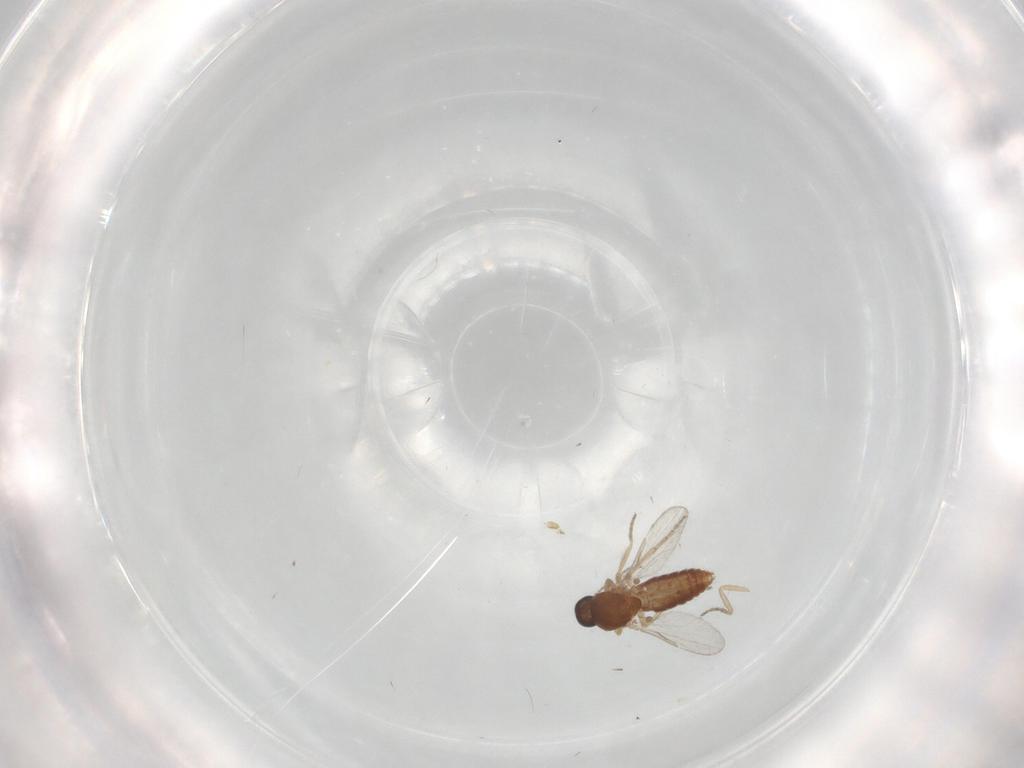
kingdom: Animalia
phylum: Arthropoda
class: Insecta
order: Diptera
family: Ceratopogonidae
